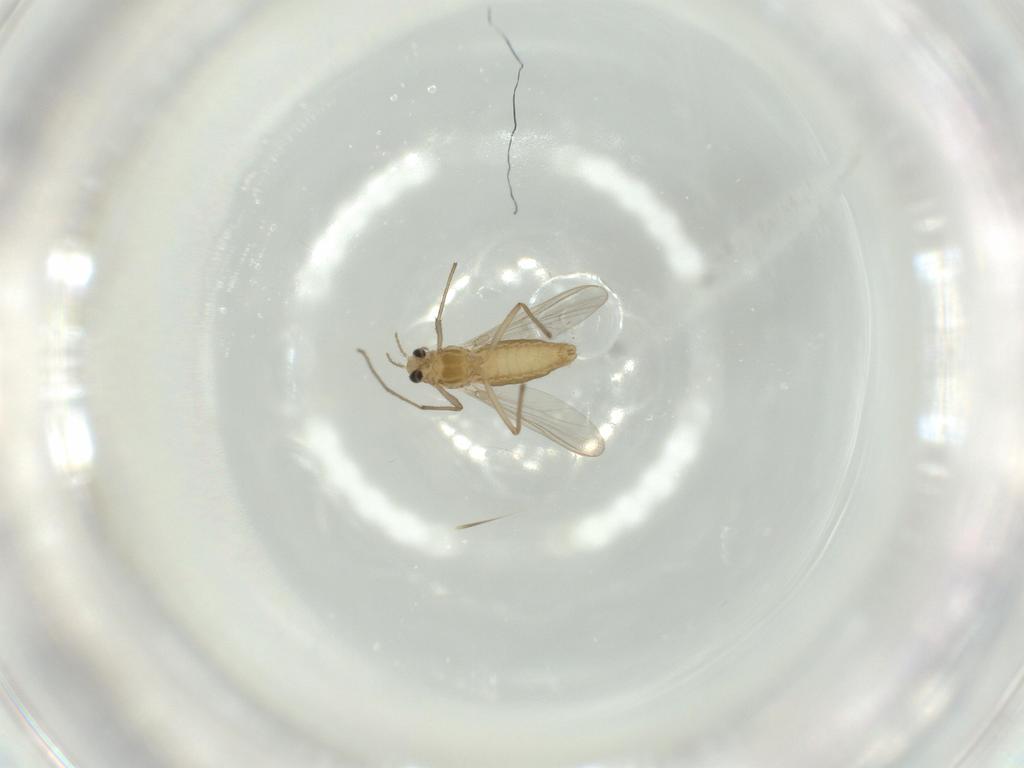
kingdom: Animalia
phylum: Arthropoda
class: Insecta
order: Diptera
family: Chironomidae
